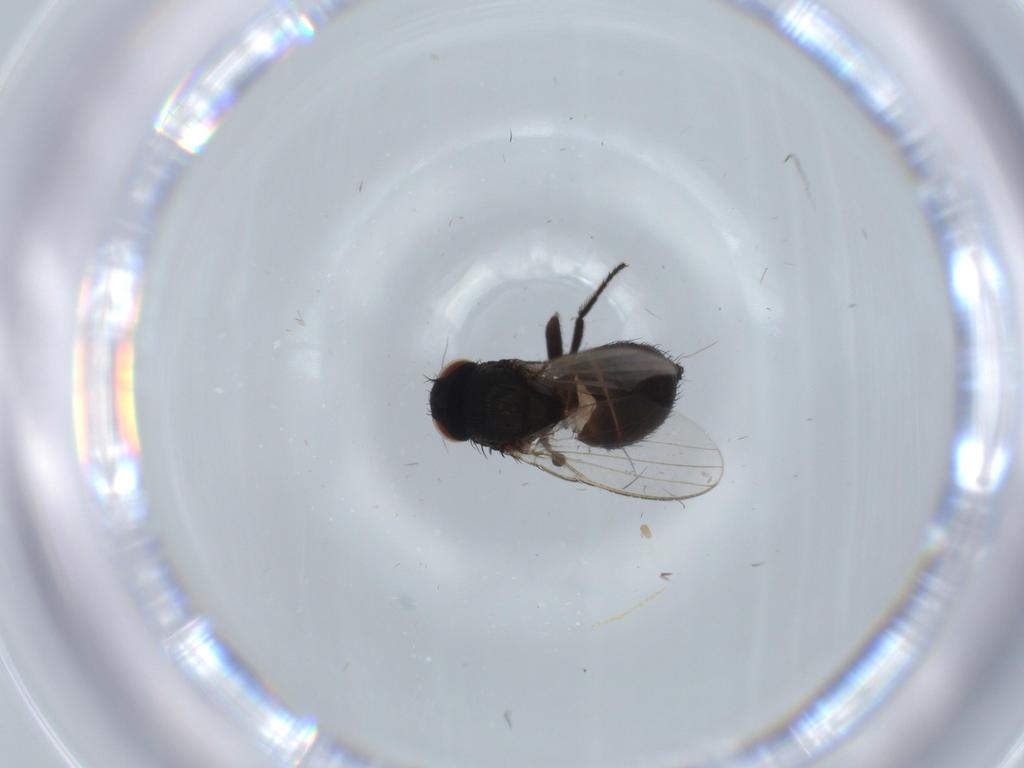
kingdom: Animalia
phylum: Arthropoda
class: Insecta
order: Diptera
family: Milichiidae
